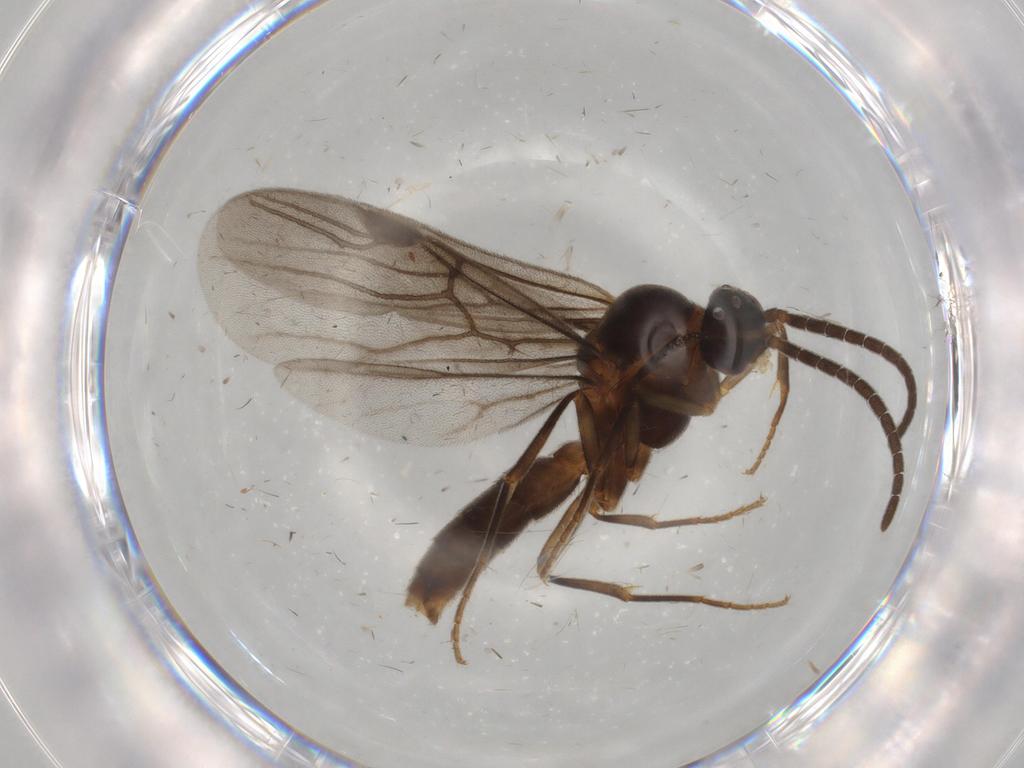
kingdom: Animalia
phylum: Arthropoda
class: Insecta
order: Hymenoptera
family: Formicidae
